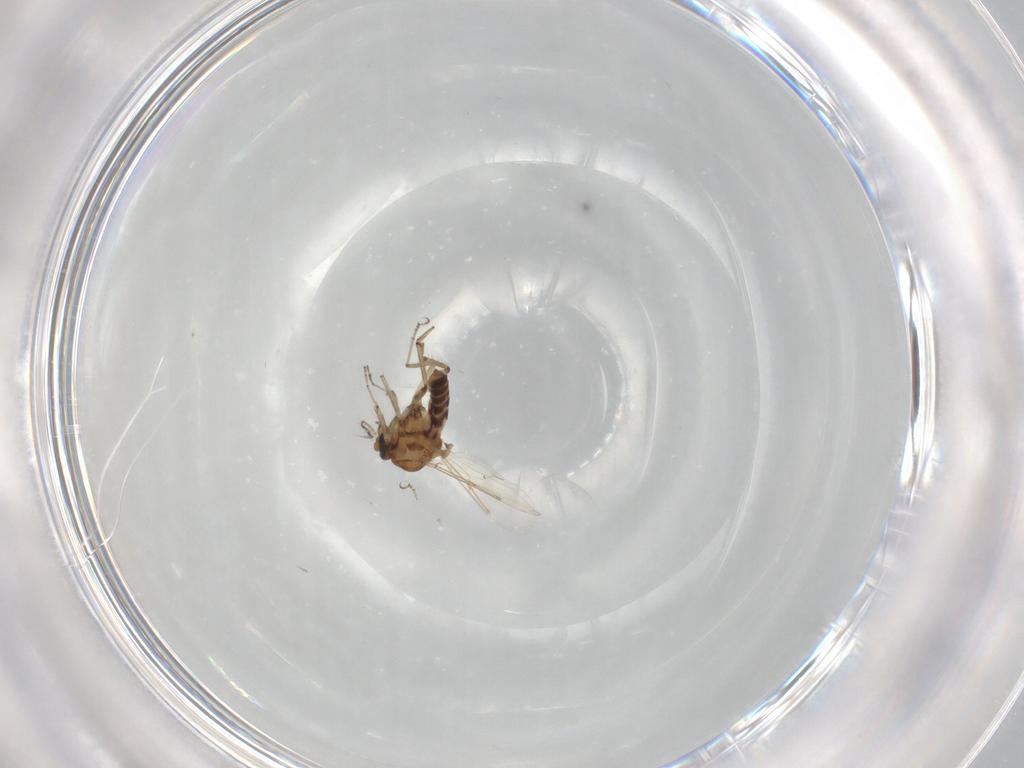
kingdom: Animalia
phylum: Arthropoda
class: Insecta
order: Diptera
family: Ceratopogonidae
